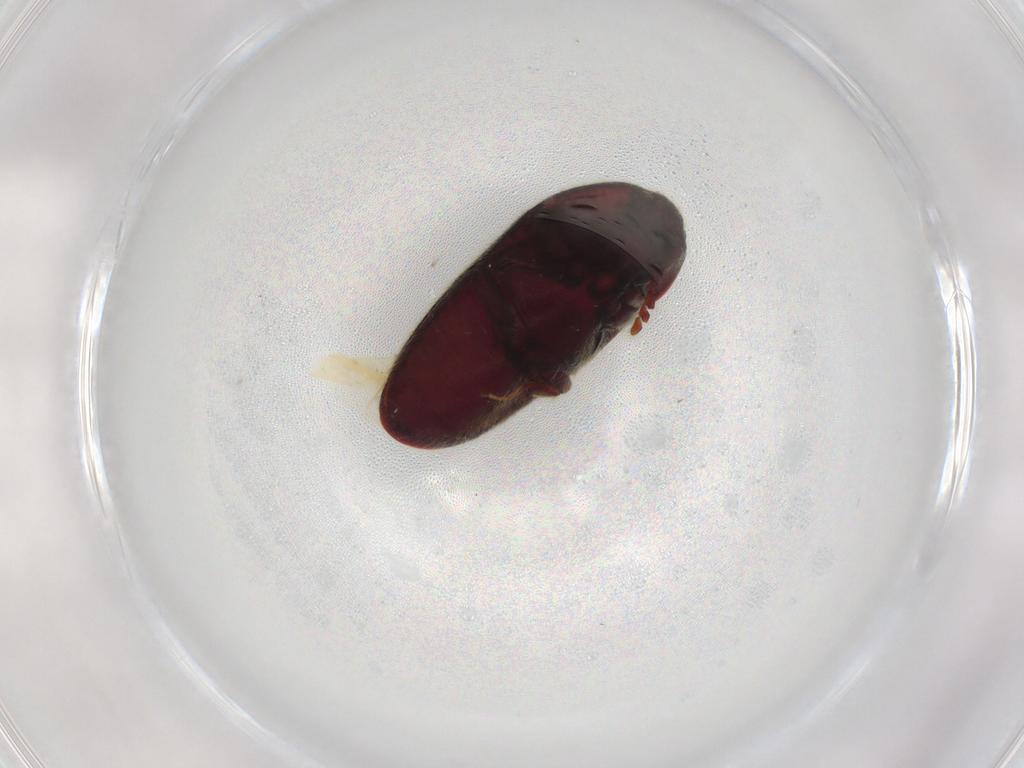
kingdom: Animalia
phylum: Arthropoda
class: Insecta
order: Coleoptera
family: Throscidae
